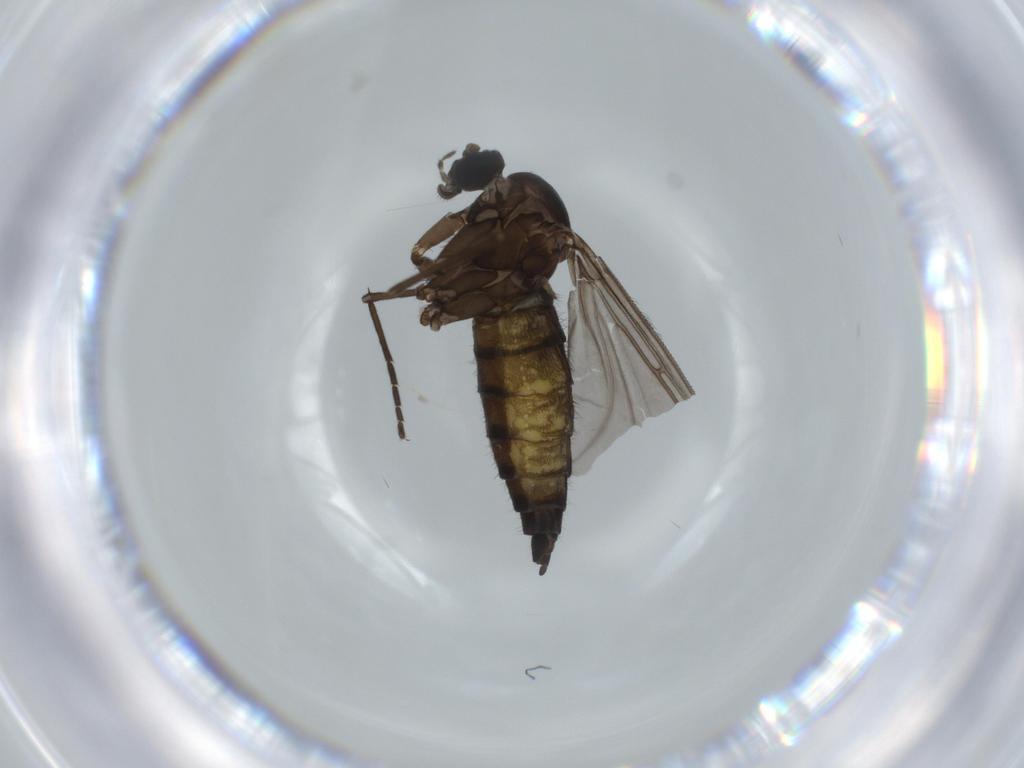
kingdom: Animalia
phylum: Arthropoda
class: Insecta
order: Diptera
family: Sciaridae
